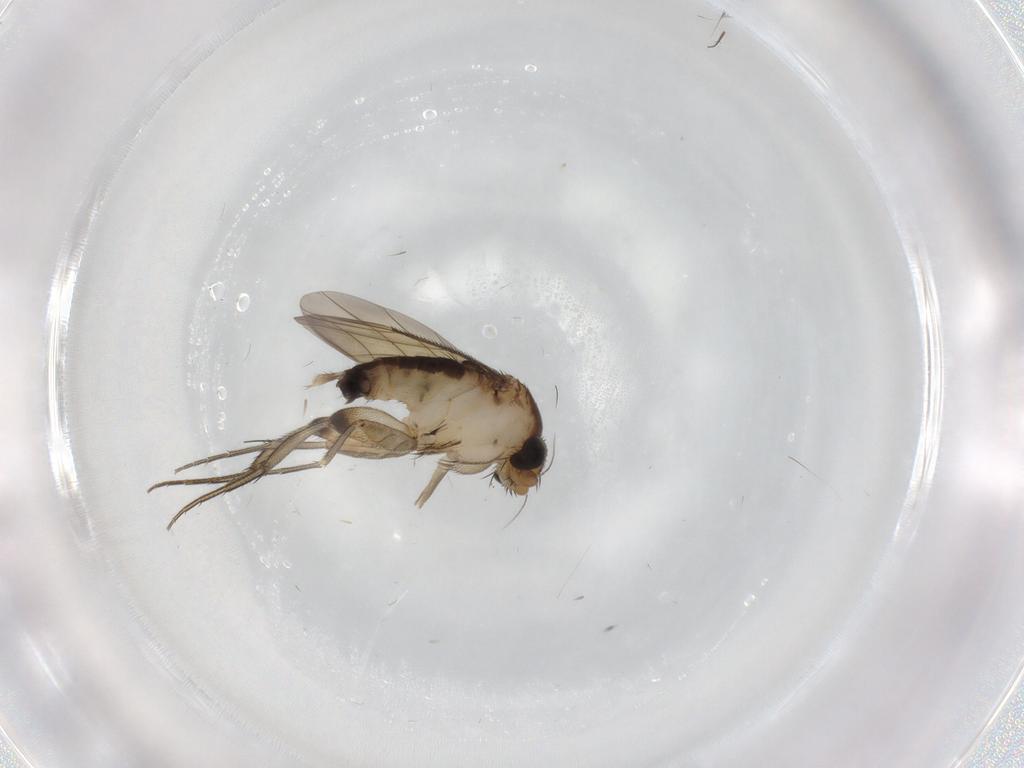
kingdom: Animalia
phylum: Arthropoda
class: Insecta
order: Diptera
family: Phoridae
